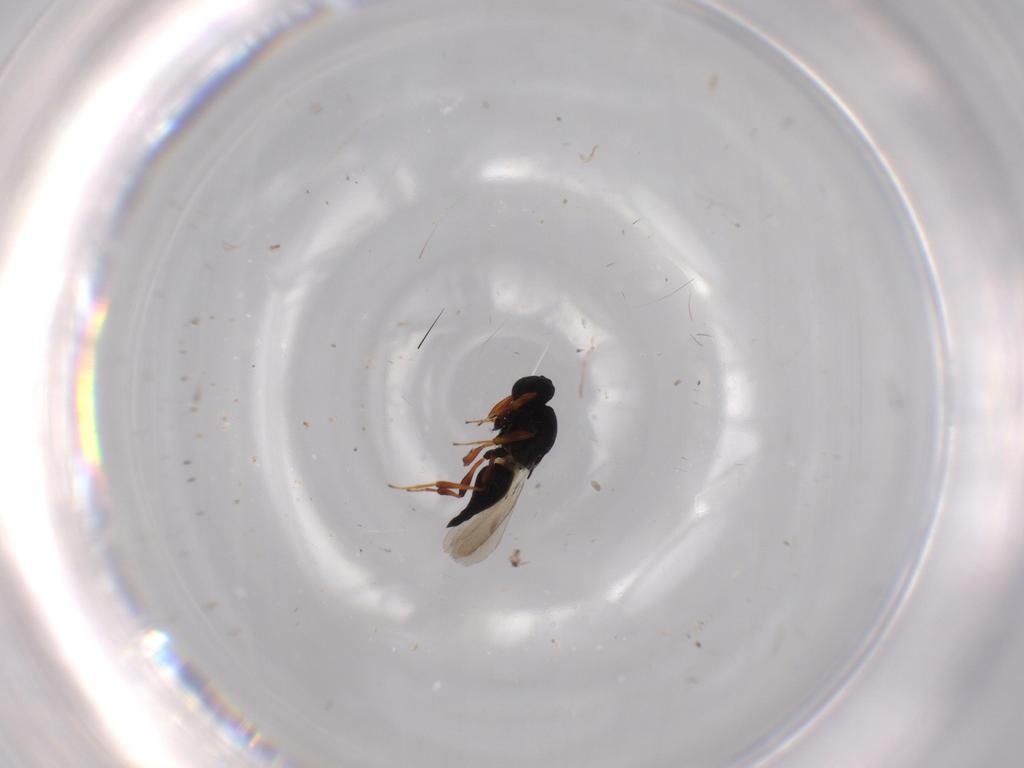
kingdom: Animalia
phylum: Arthropoda
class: Insecta
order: Hymenoptera
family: Platygastridae
